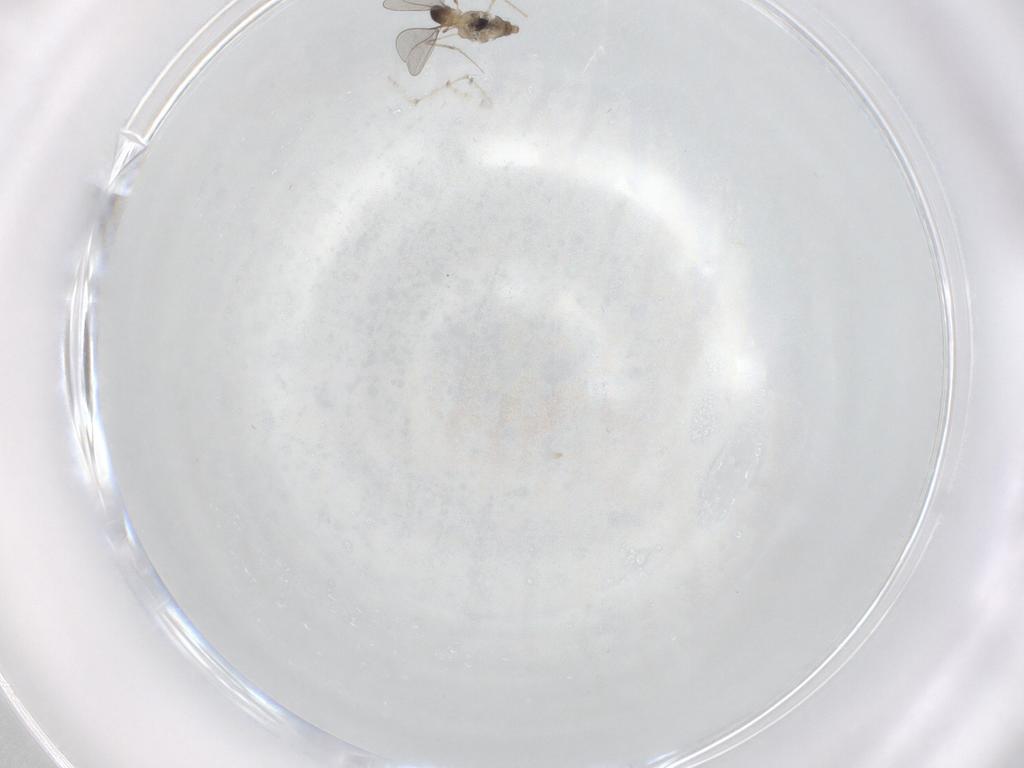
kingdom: Animalia
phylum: Arthropoda
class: Insecta
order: Diptera
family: Cecidomyiidae
